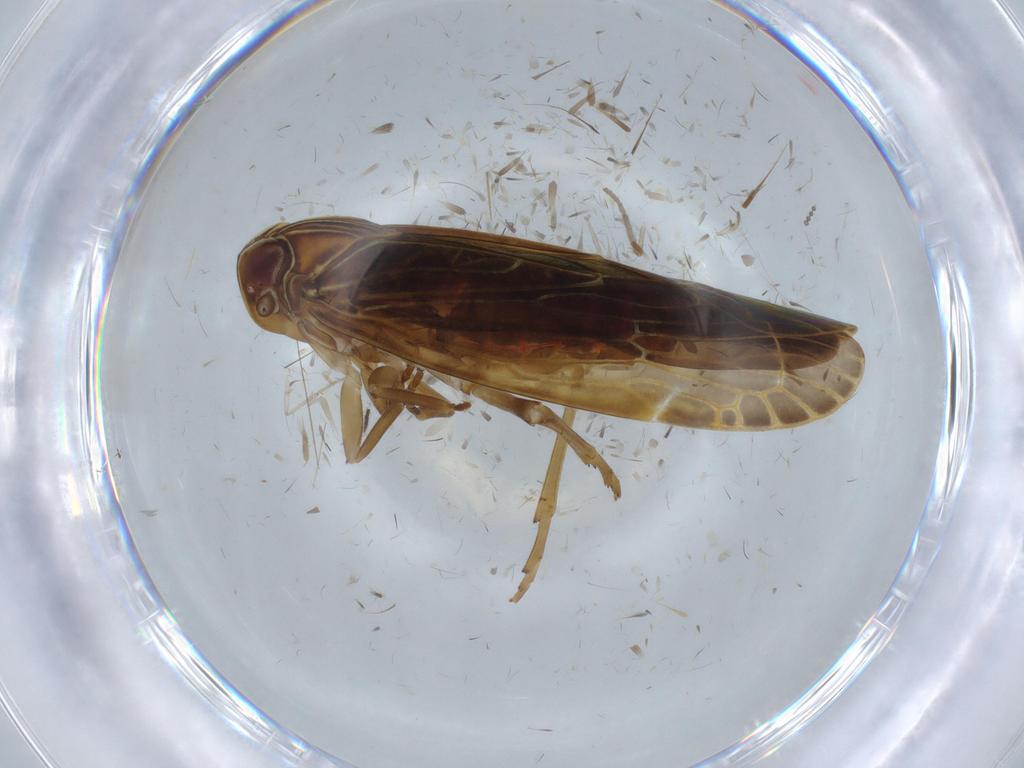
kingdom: Animalia
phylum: Arthropoda
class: Insecta
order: Hemiptera
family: Achilidae
